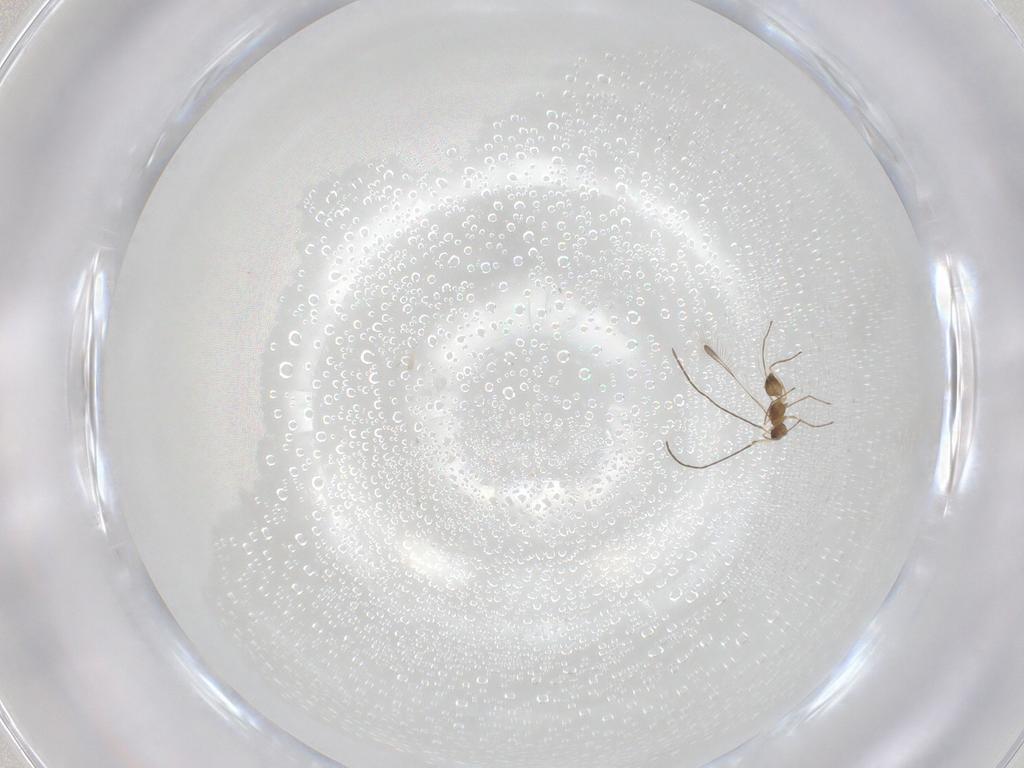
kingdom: Animalia
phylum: Arthropoda
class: Insecta
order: Hymenoptera
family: Mymaridae
